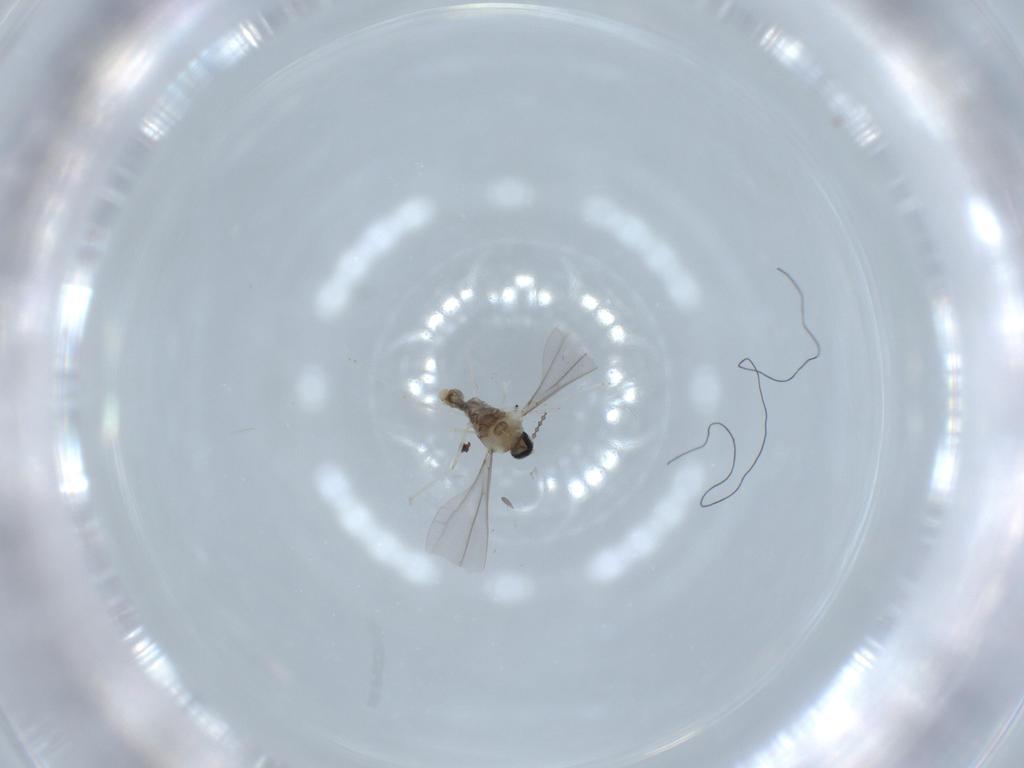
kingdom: Animalia
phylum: Arthropoda
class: Insecta
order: Diptera
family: Cecidomyiidae
